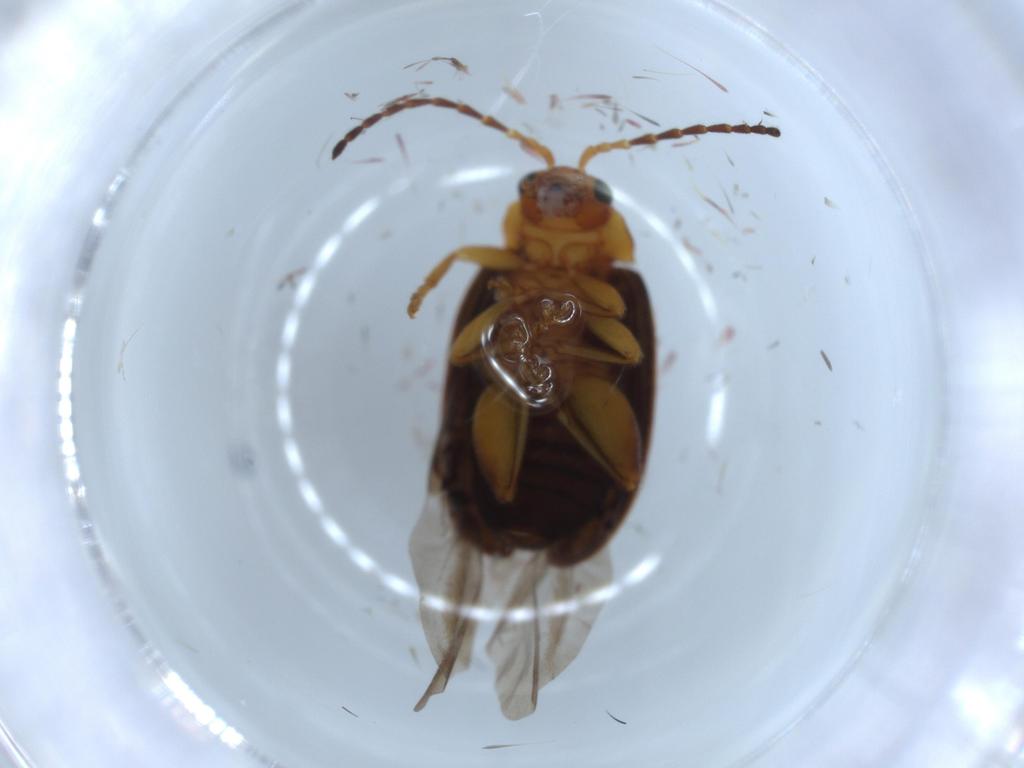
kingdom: Animalia
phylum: Arthropoda
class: Insecta
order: Coleoptera
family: Chrysomelidae
